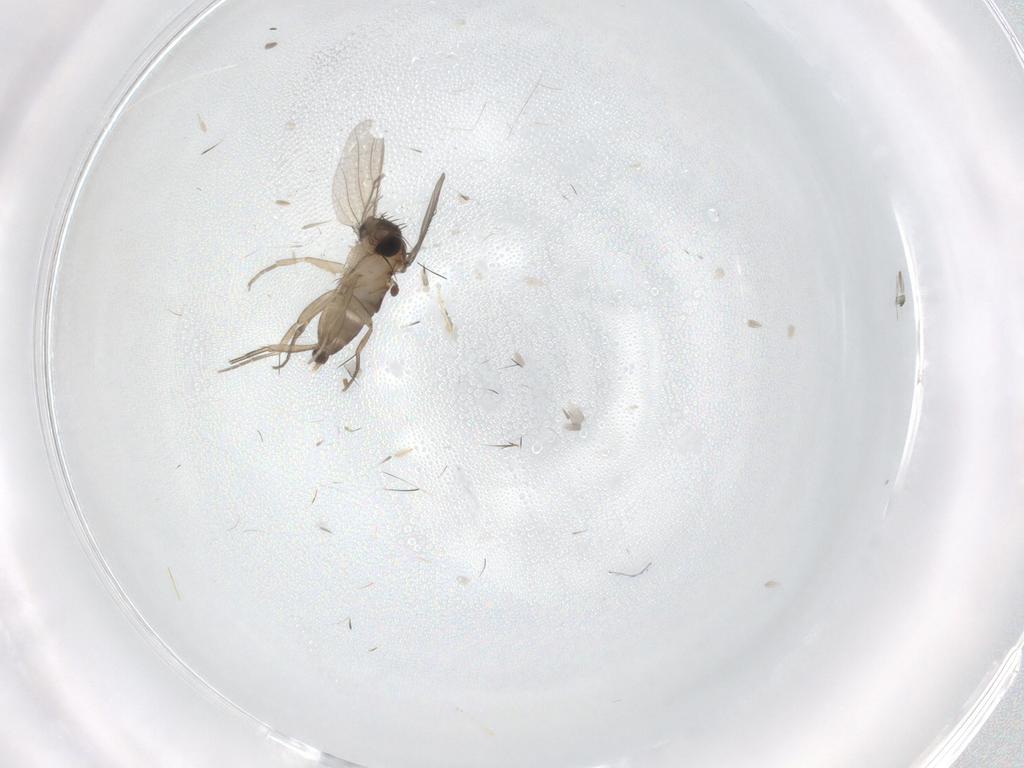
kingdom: Animalia
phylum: Arthropoda
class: Insecta
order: Diptera
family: Phoridae
